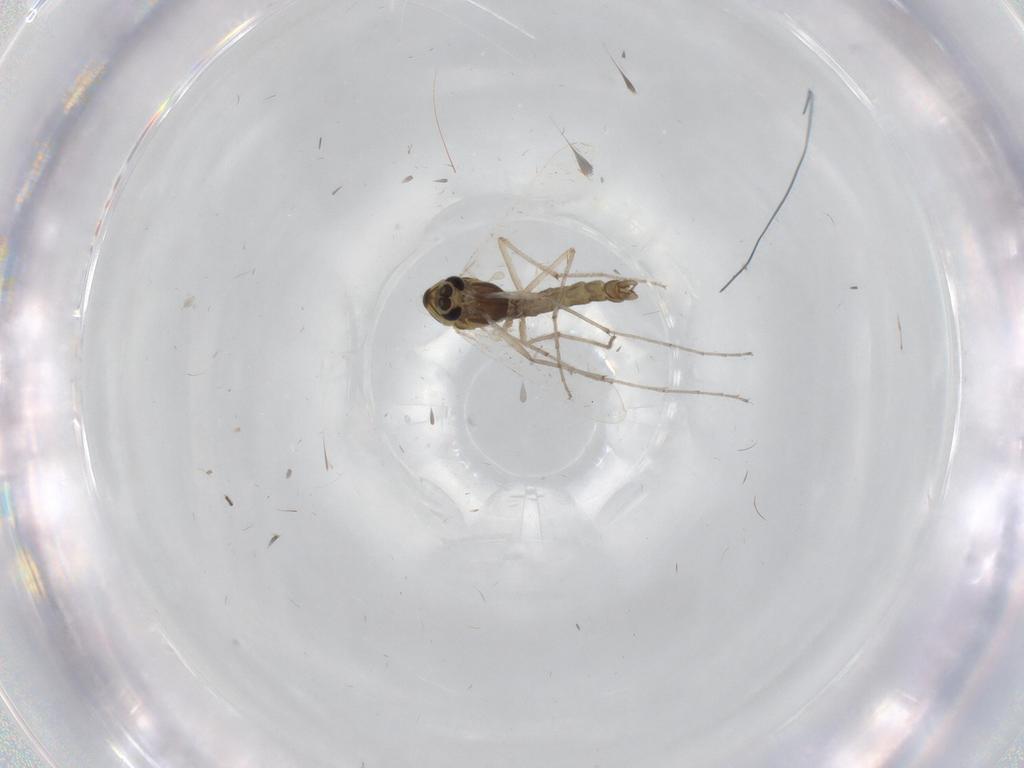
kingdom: Animalia
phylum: Arthropoda
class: Insecta
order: Diptera
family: Chironomidae
